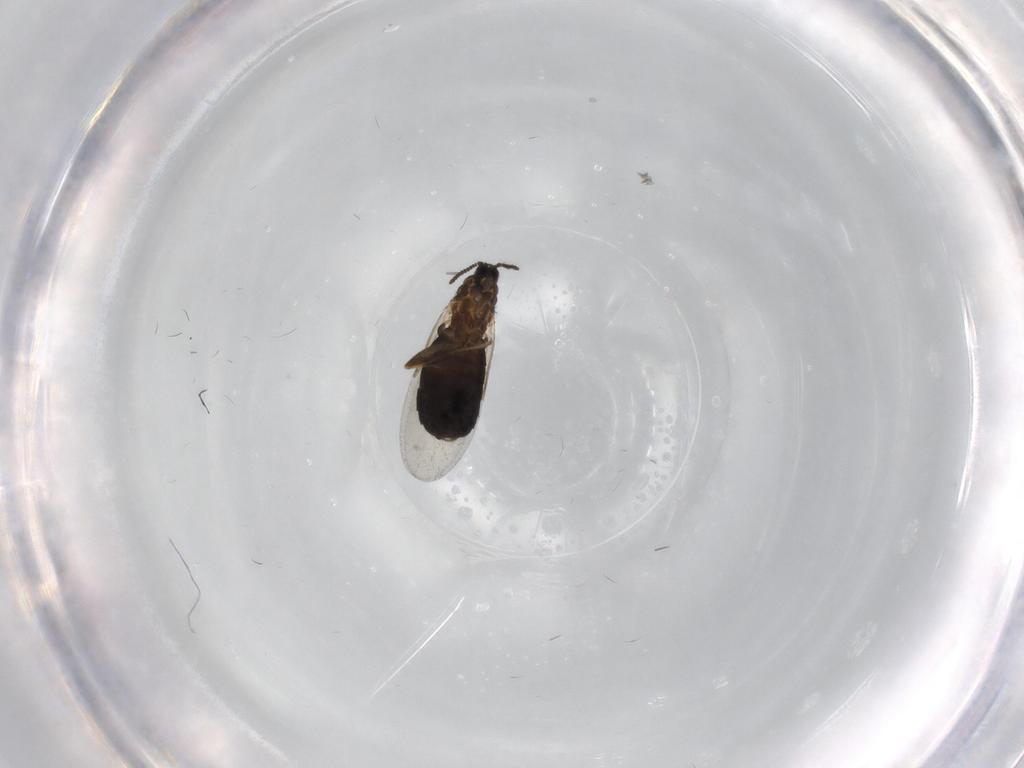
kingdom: Animalia
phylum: Arthropoda
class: Insecta
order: Diptera
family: Scatopsidae
